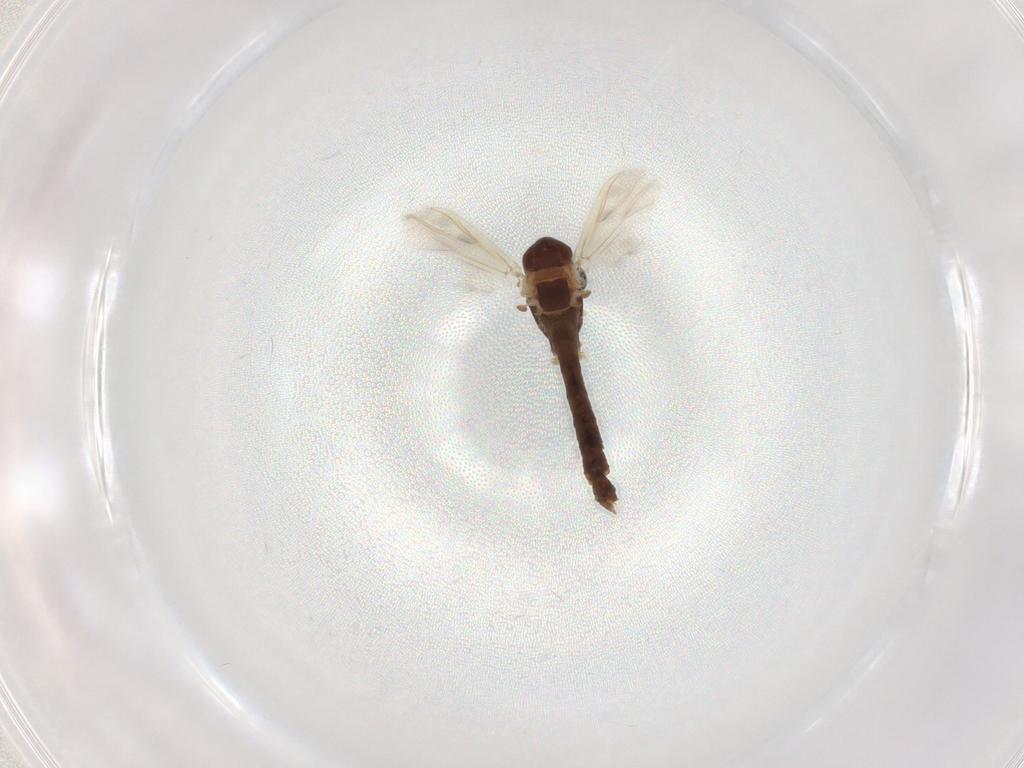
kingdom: Animalia
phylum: Arthropoda
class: Insecta
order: Diptera
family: Chironomidae
